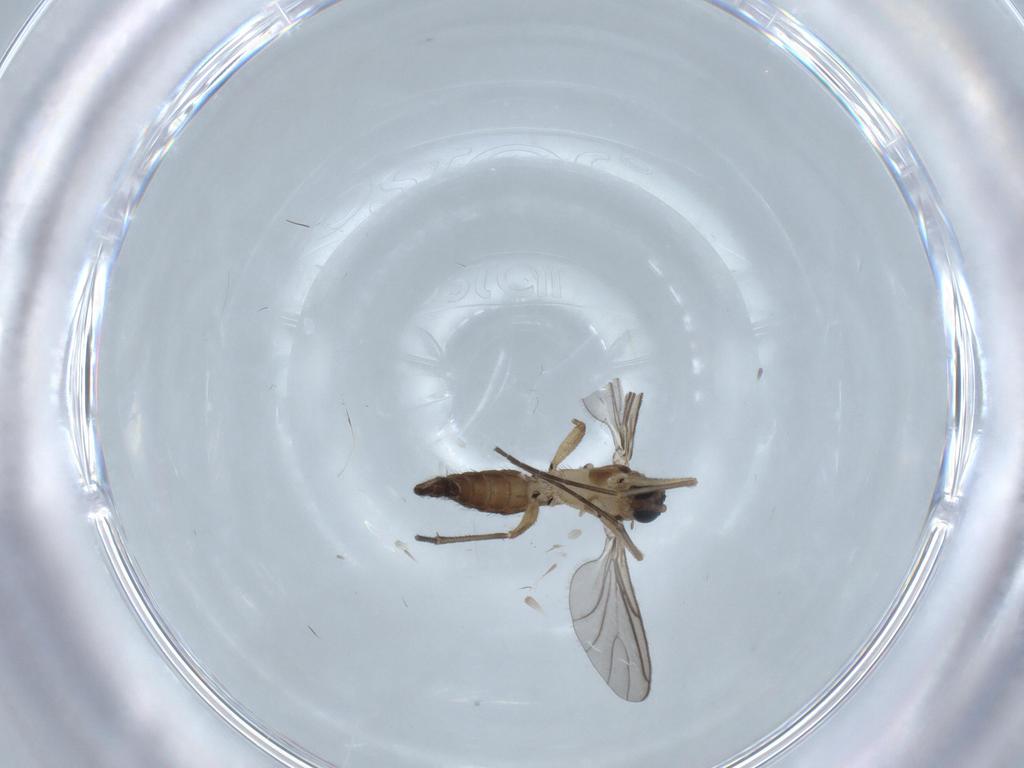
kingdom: Animalia
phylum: Arthropoda
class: Insecta
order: Diptera
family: Sciaridae
